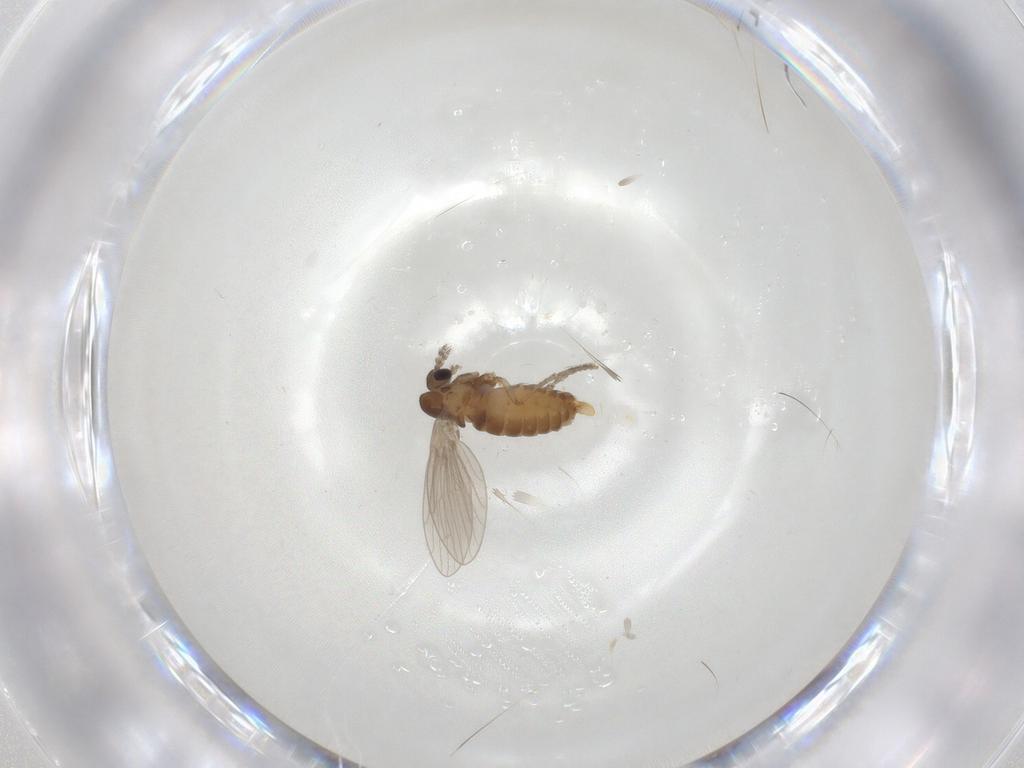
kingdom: Animalia
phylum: Arthropoda
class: Insecta
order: Diptera
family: Phoridae
